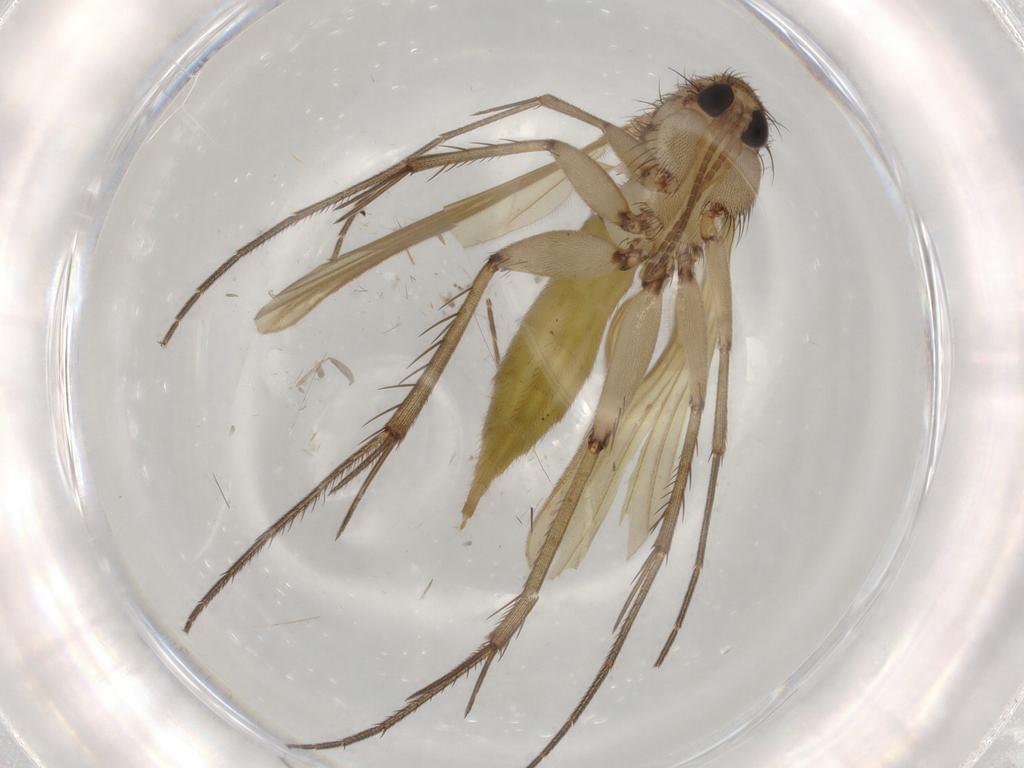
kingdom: Animalia
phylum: Arthropoda
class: Insecta
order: Diptera
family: Mycetophilidae
